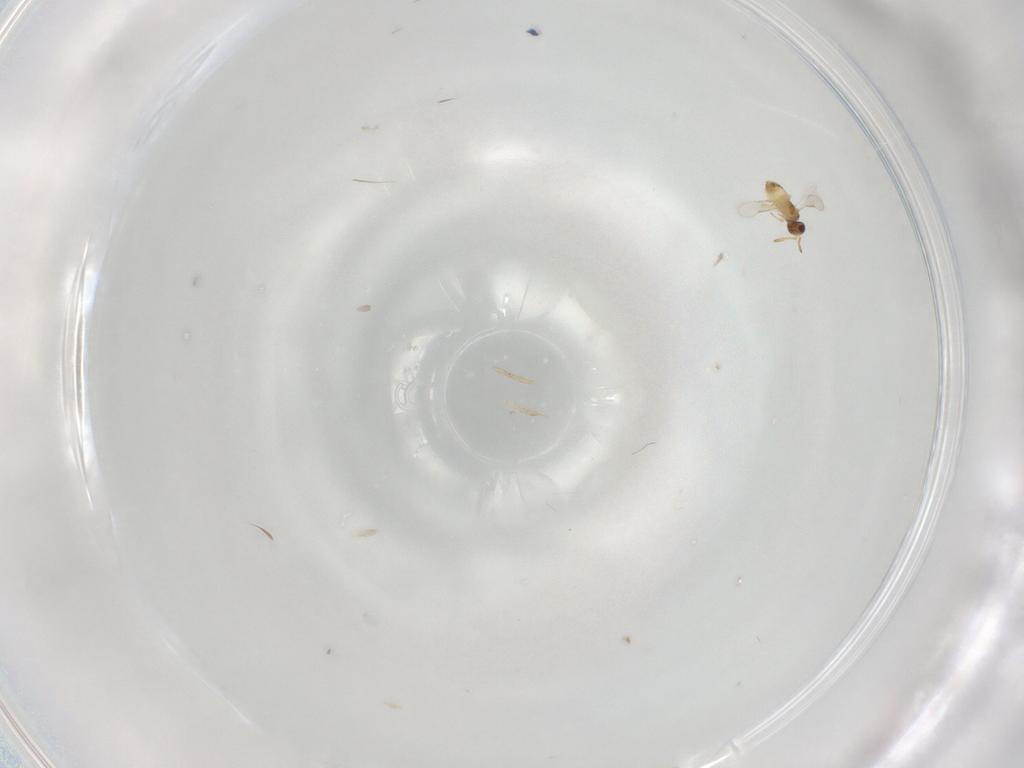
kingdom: Animalia
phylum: Arthropoda
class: Insecta
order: Hymenoptera
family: Aphelinidae
